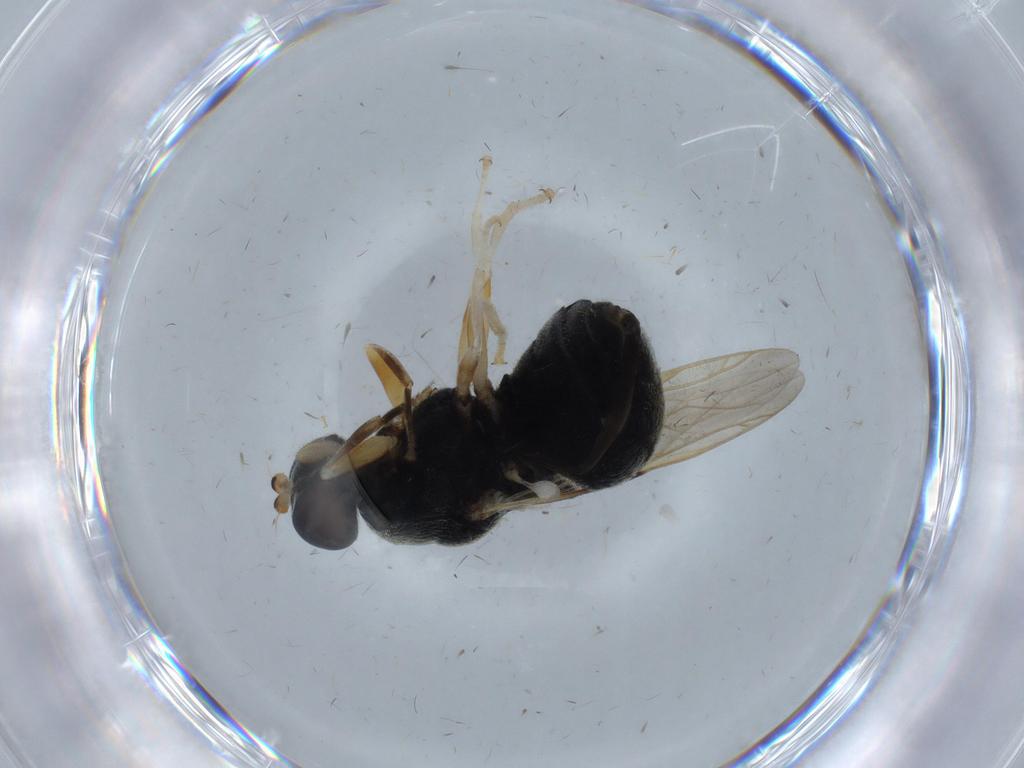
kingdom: Animalia
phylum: Arthropoda
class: Insecta
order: Diptera
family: Stratiomyidae
